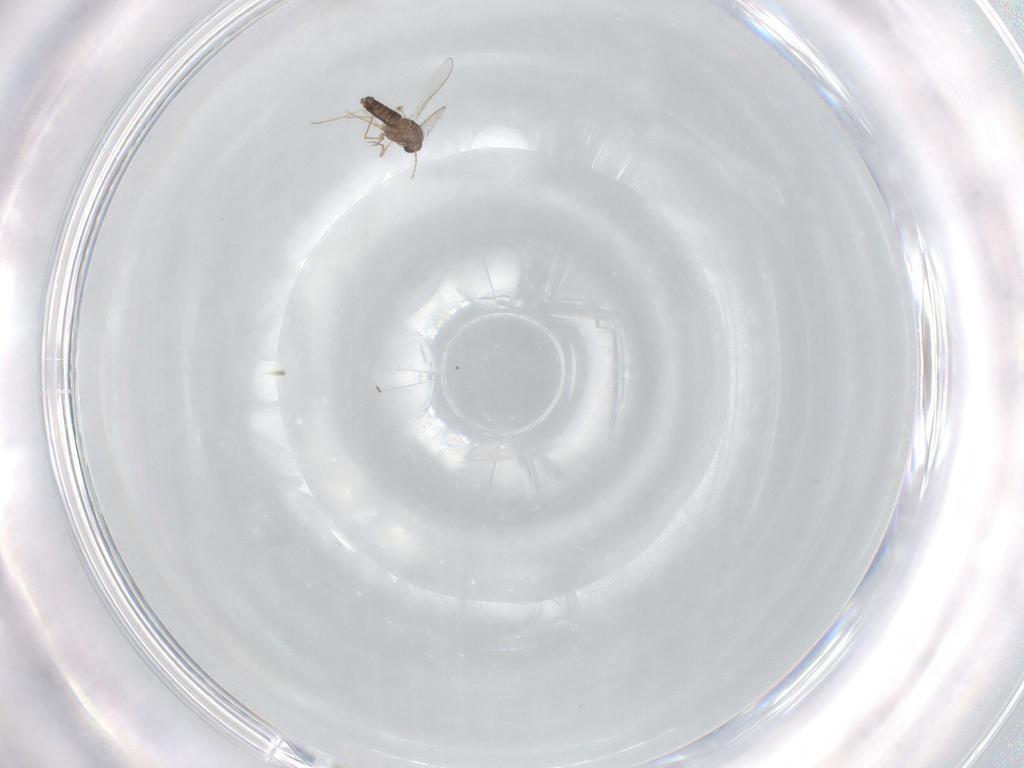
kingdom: Animalia
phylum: Arthropoda
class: Insecta
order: Diptera
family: Chironomidae
